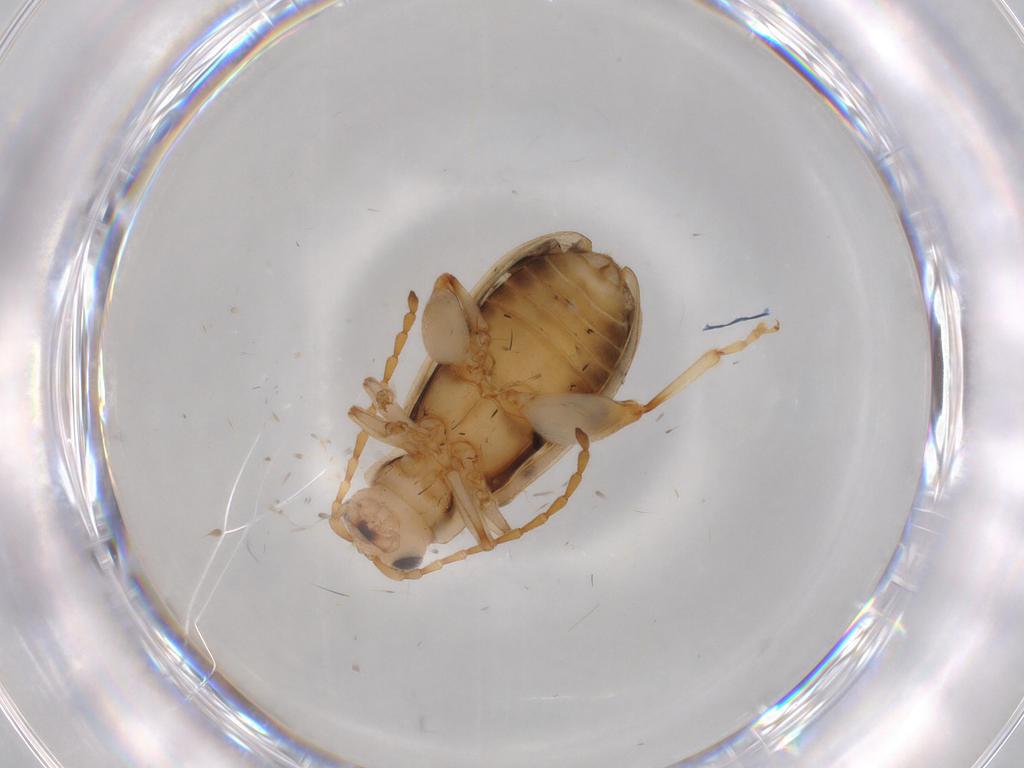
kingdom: Animalia
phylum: Arthropoda
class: Insecta
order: Coleoptera
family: Chrysomelidae
